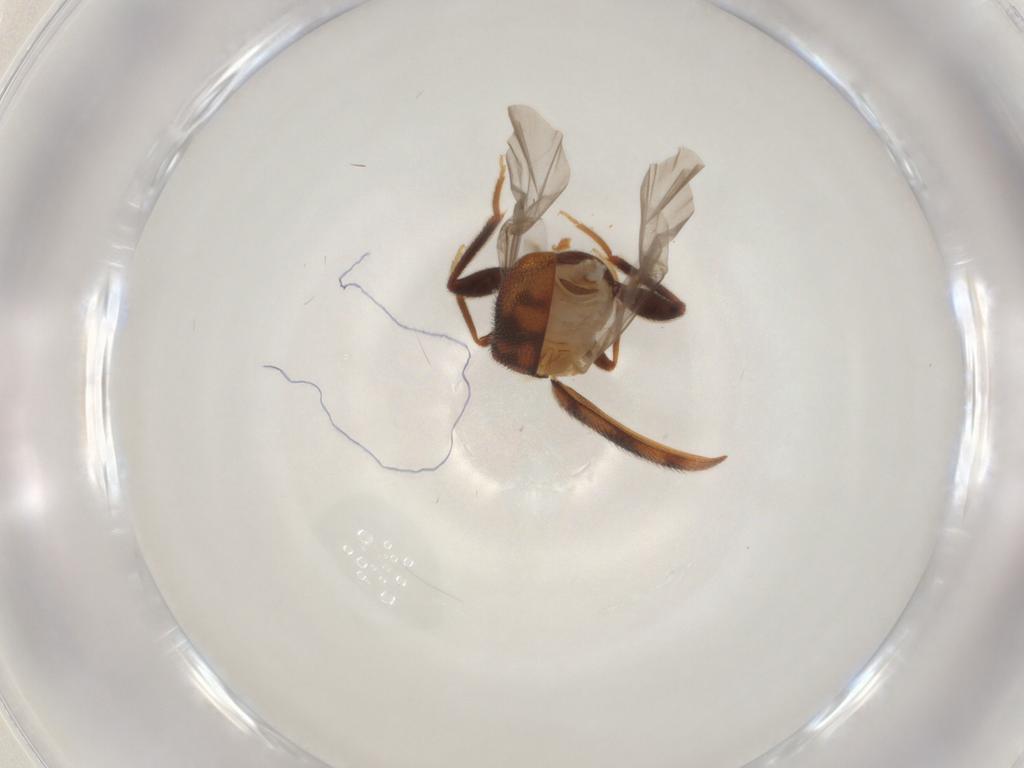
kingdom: Animalia
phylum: Arthropoda
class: Insecta
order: Coleoptera
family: Aderidae
